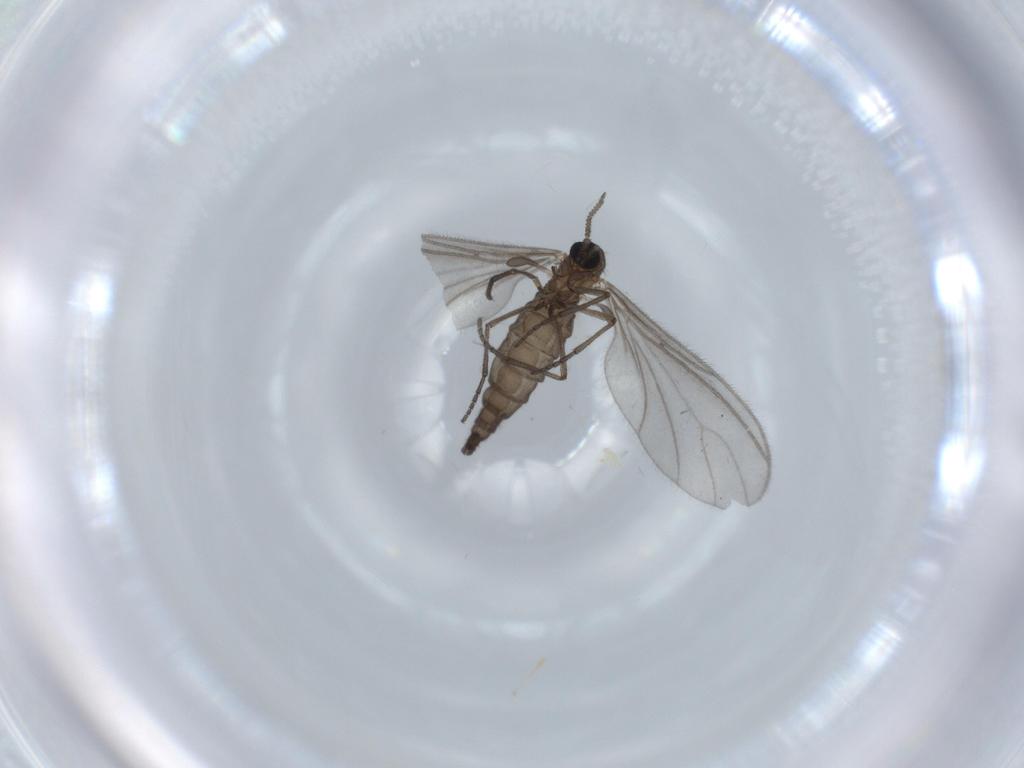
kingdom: Animalia
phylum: Arthropoda
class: Insecta
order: Diptera
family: Sciaridae
